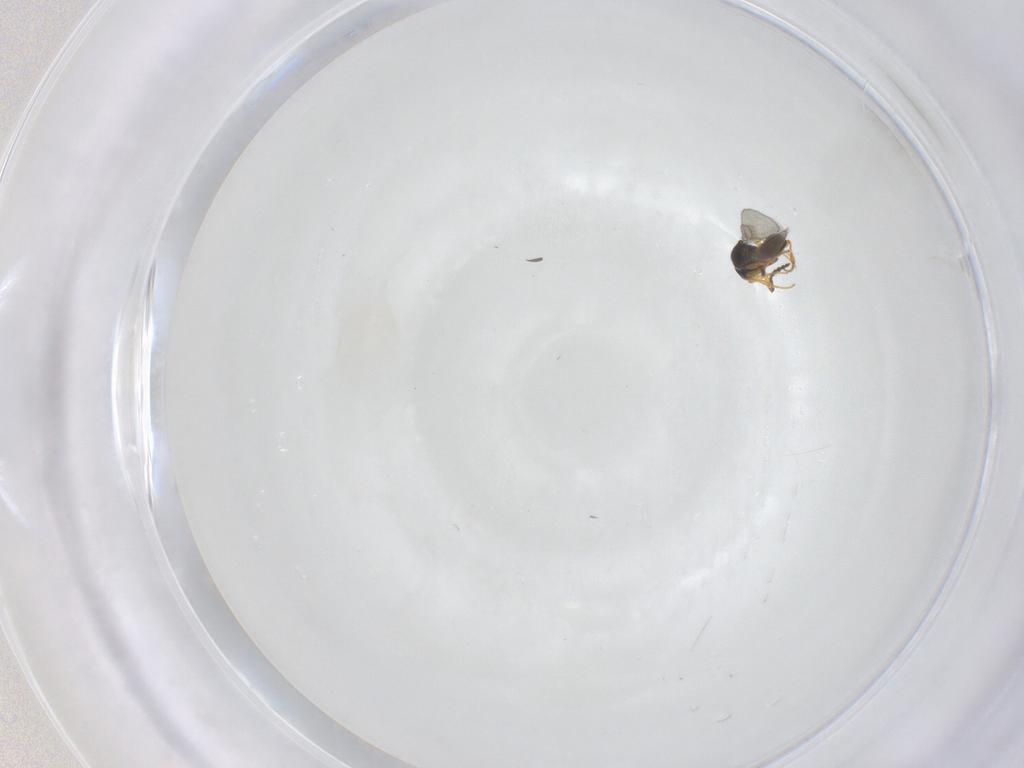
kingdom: Animalia
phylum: Arthropoda
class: Insecta
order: Hymenoptera
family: Platygastridae
